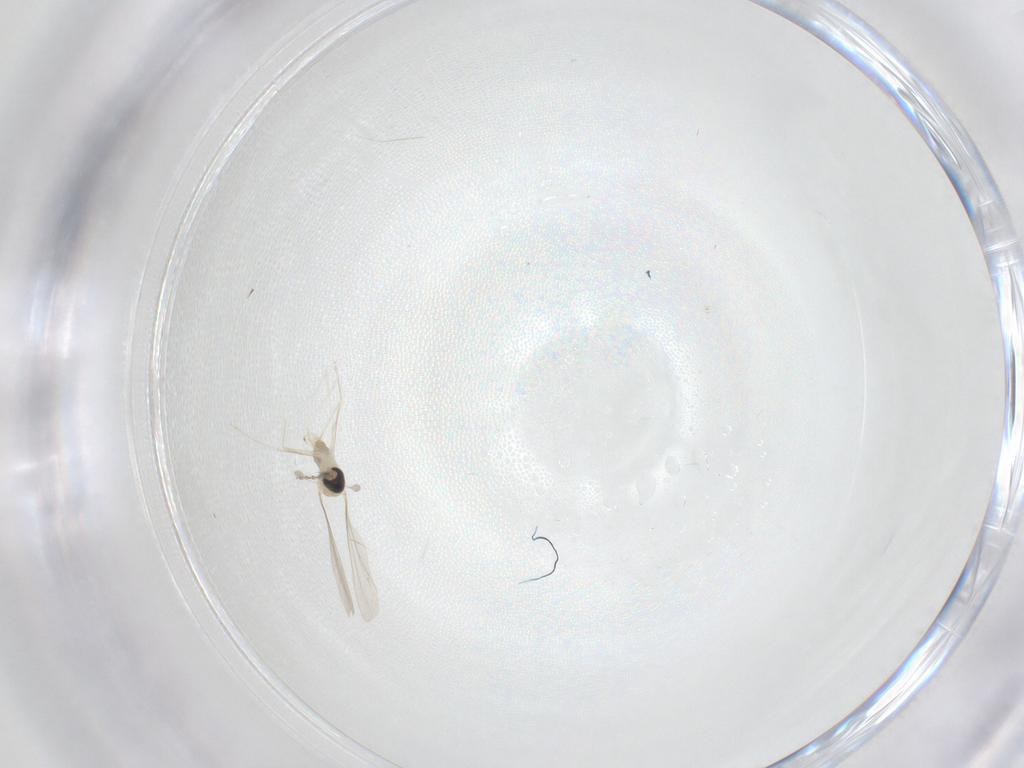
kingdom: Animalia
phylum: Arthropoda
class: Insecta
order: Diptera
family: Cecidomyiidae
